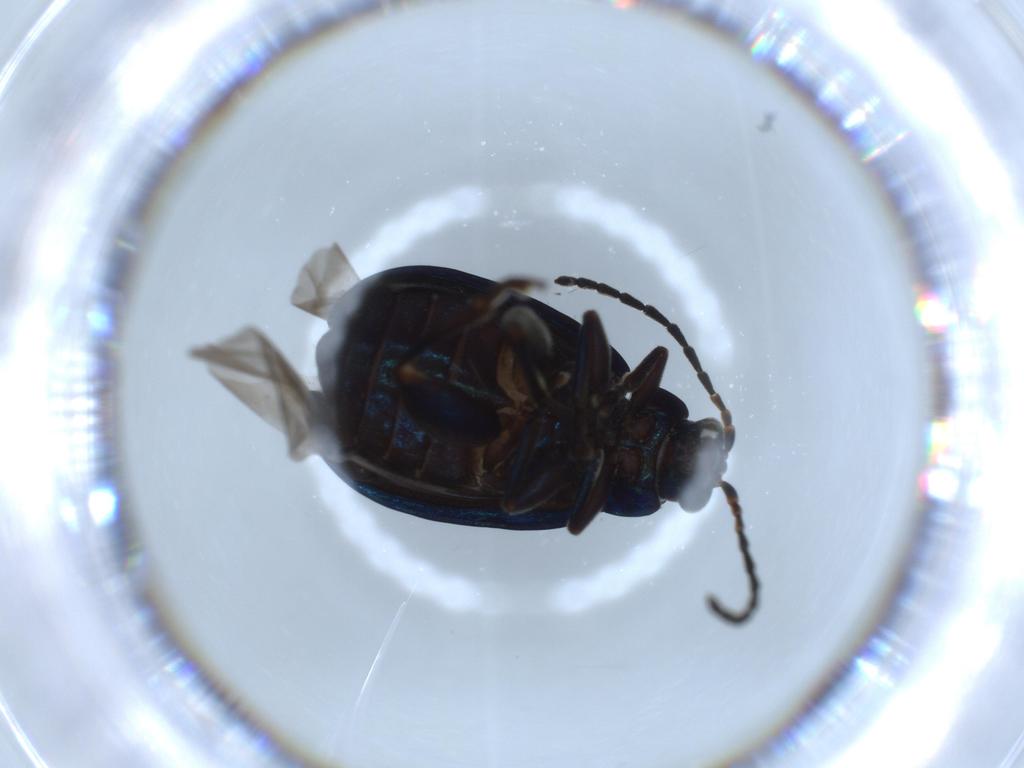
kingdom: Animalia
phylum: Arthropoda
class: Insecta
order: Coleoptera
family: Chrysomelidae
